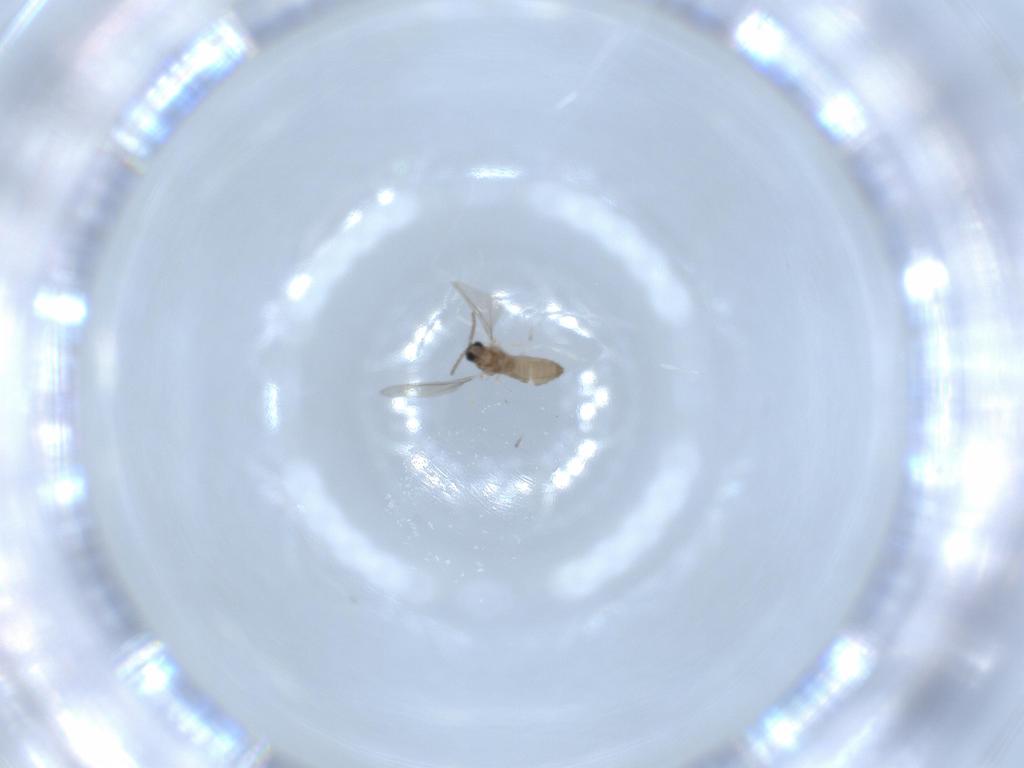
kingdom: Animalia
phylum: Arthropoda
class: Insecta
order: Diptera
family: Cecidomyiidae
